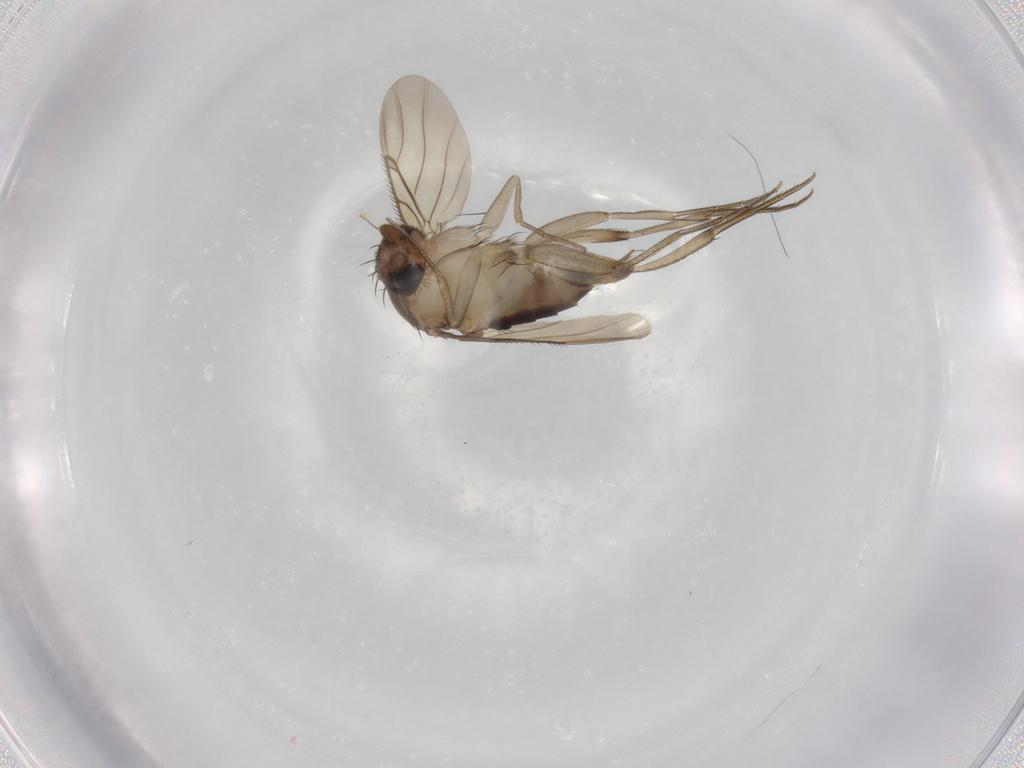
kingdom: Animalia
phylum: Arthropoda
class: Insecta
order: Diptera
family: Phoridae
